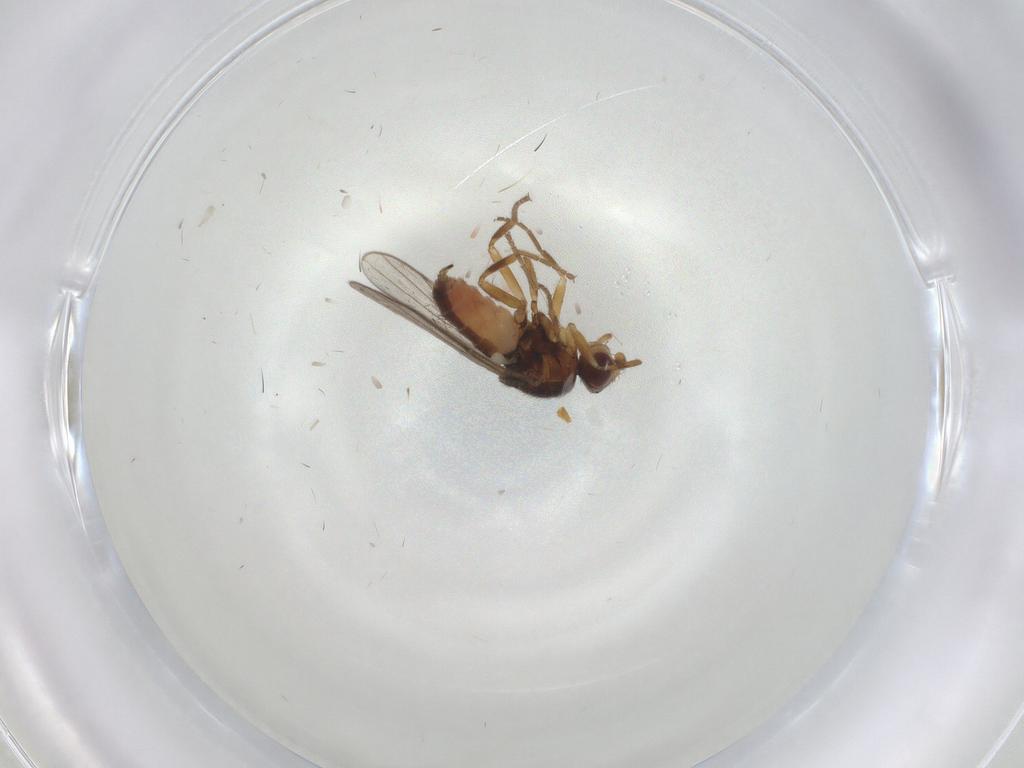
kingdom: Animalia
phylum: Arthropoda
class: Insecta
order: Diptera
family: Chloropidae
